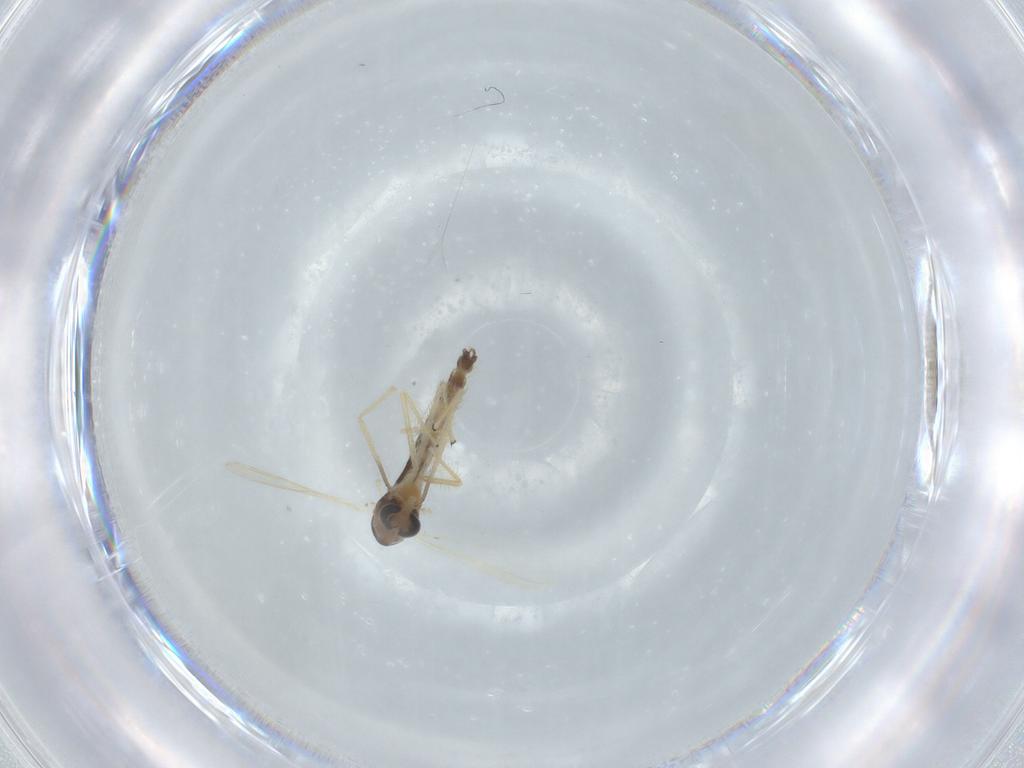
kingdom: Animalia
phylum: Arthropoda
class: Insecta
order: Diptera
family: Chironomidae
